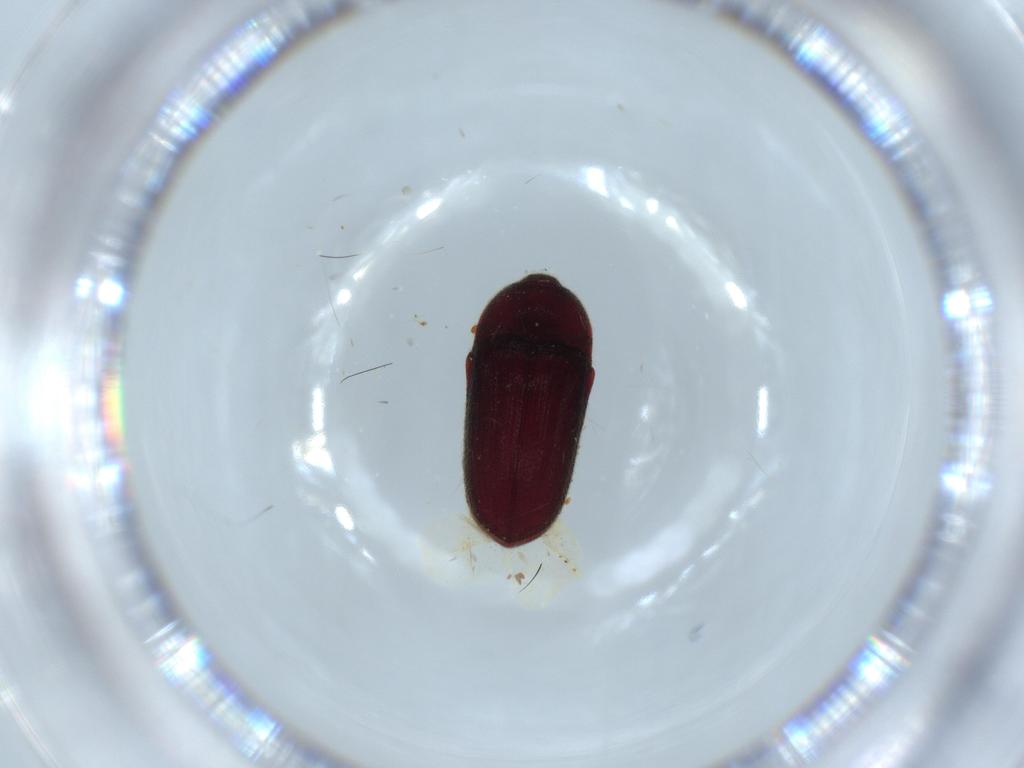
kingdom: Animalia
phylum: Arthropoda
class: Insecta
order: Coleoptera
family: Throscidae
